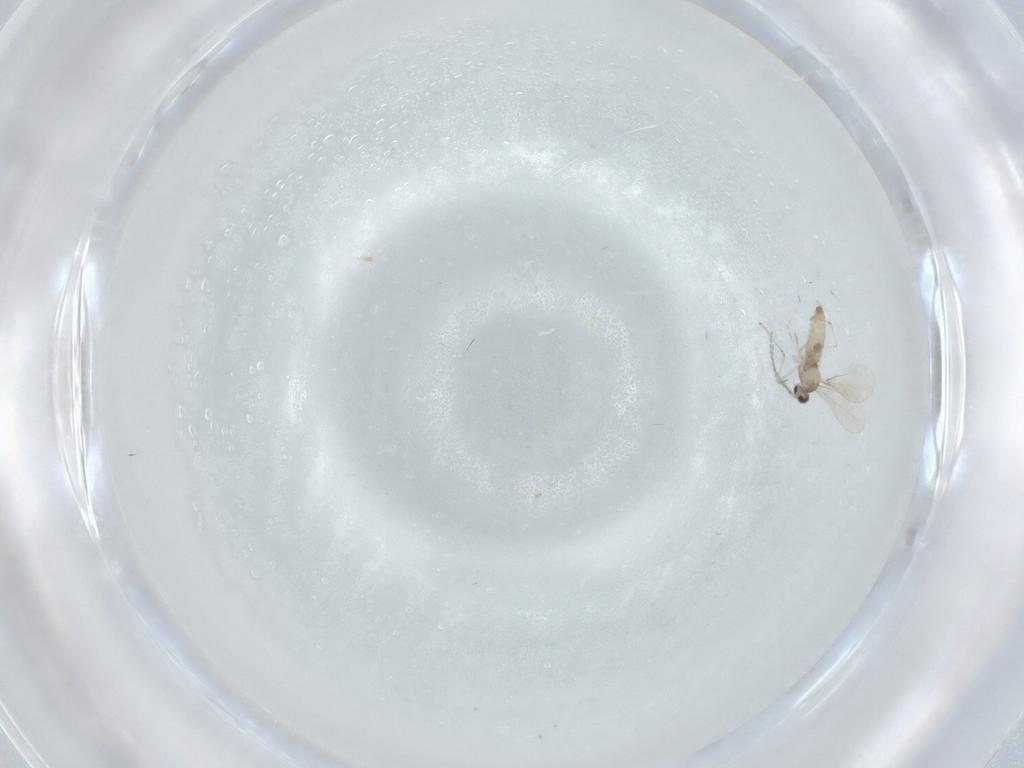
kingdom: Animalia
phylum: Arthropoda
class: Insecta
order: Diptera
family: Cecidomyiidae
